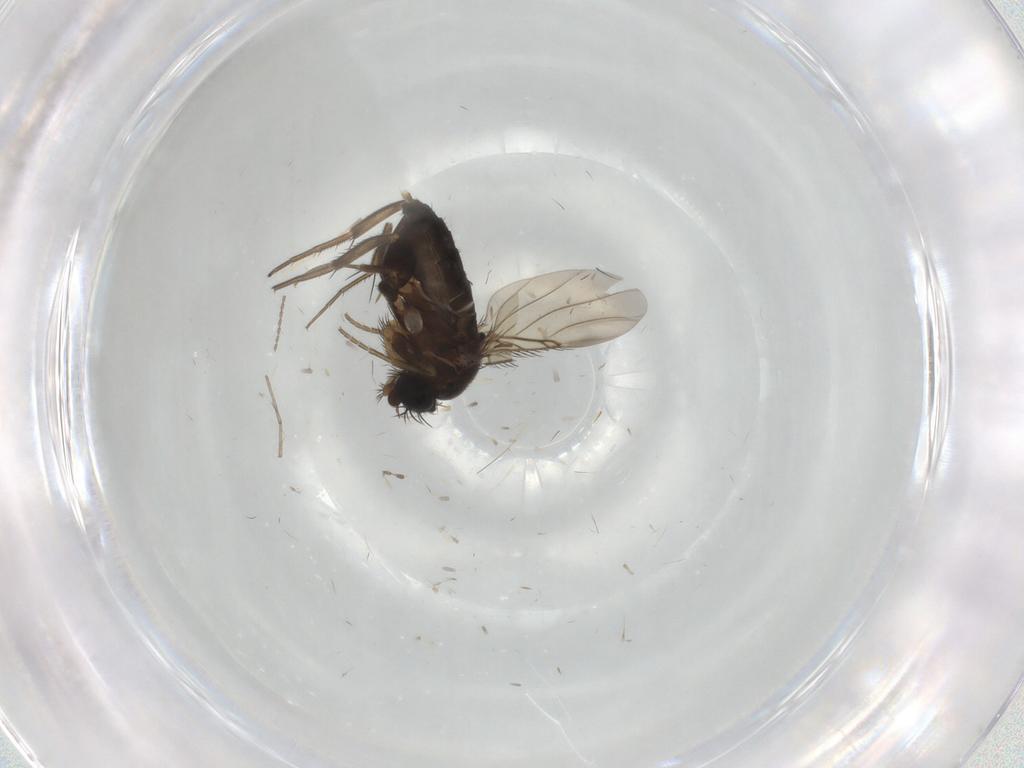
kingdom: Animalia
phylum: Arthropoda
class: Insecta
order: Diptera
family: Phoridae
